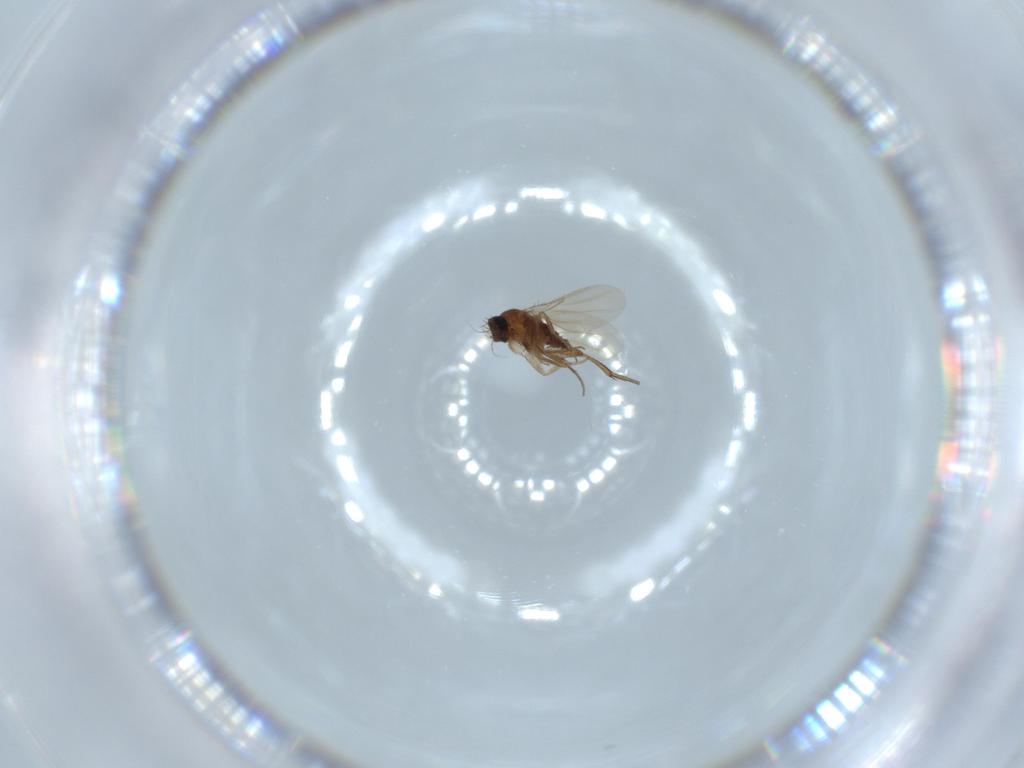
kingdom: Animalia
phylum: Arthropoda
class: Insecta
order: Diptera
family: Phoridae
